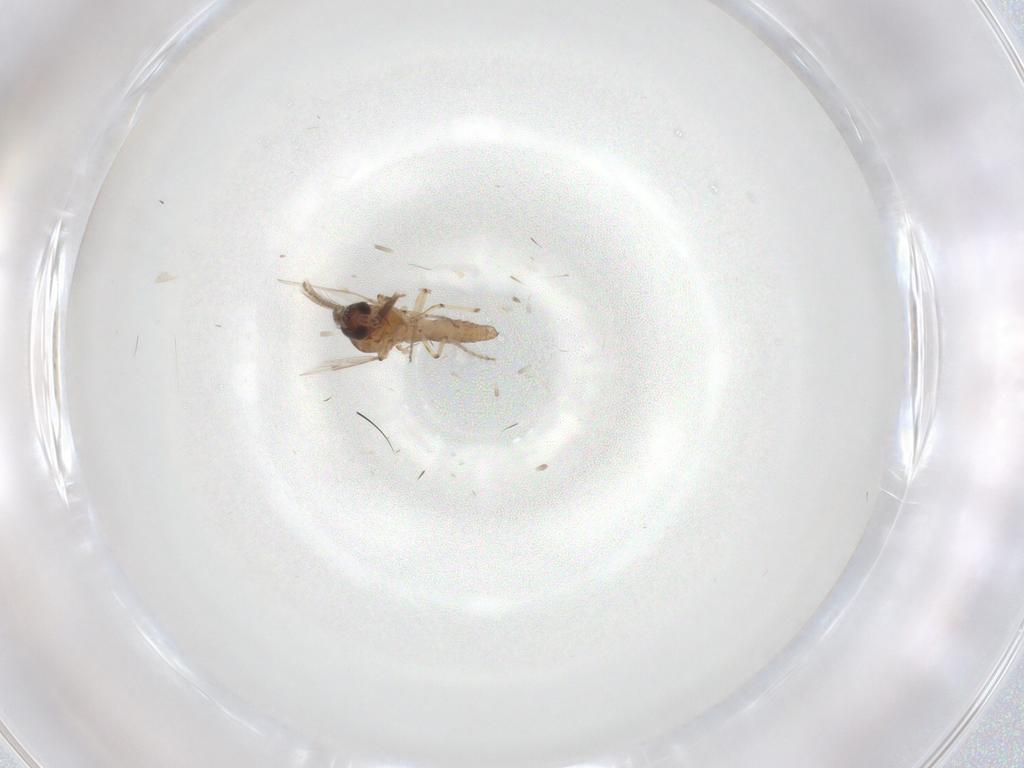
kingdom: Animalia
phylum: Arthropoda
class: Insecta
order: Diptera
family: Ceratopogonidae
